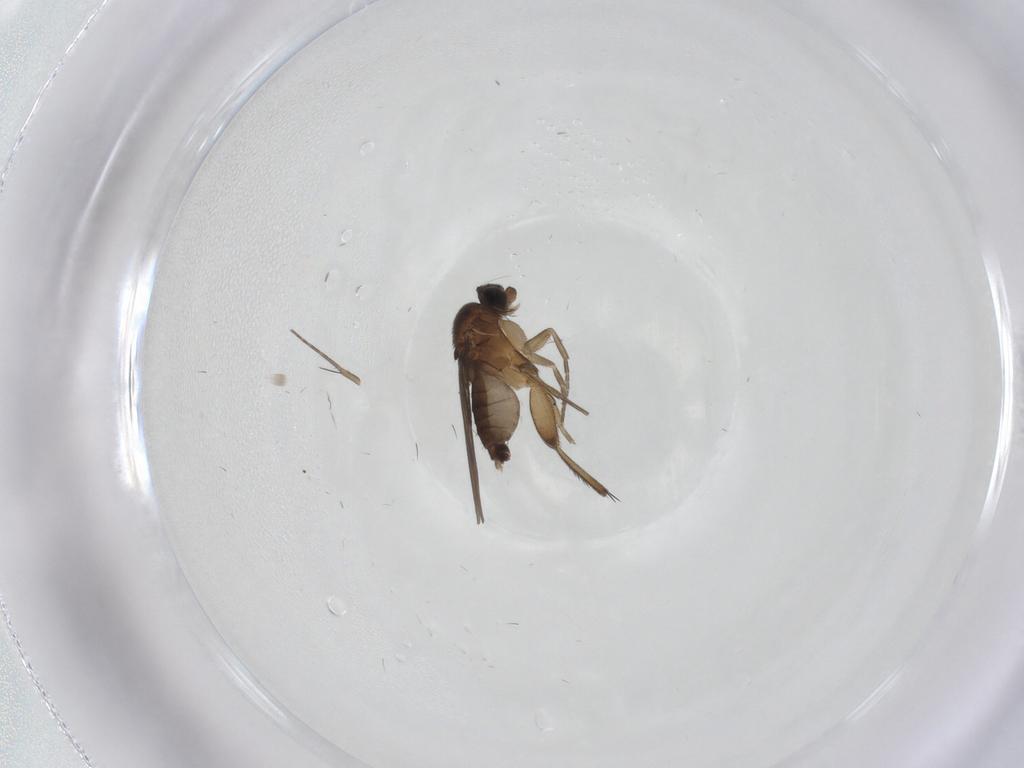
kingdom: Animalia
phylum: Arthropoda
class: Insecta
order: Diptera
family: Phoridae
